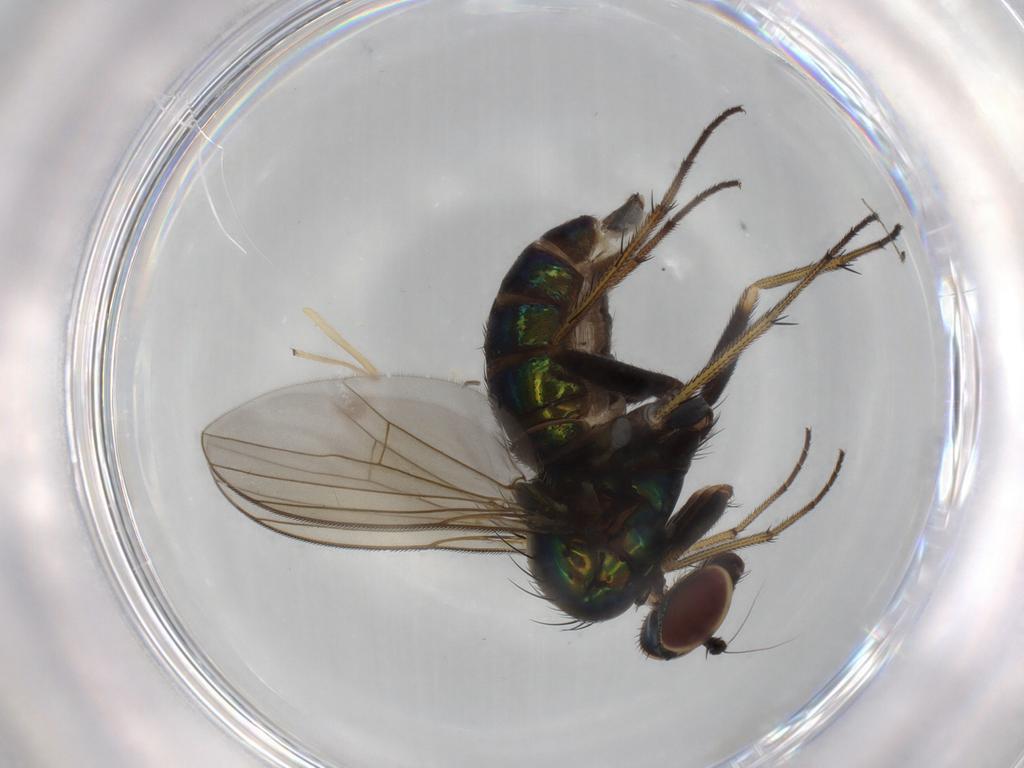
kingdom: Animalia
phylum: Arthropoda
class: Insecta
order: Diptera
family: Dolichopodidae
